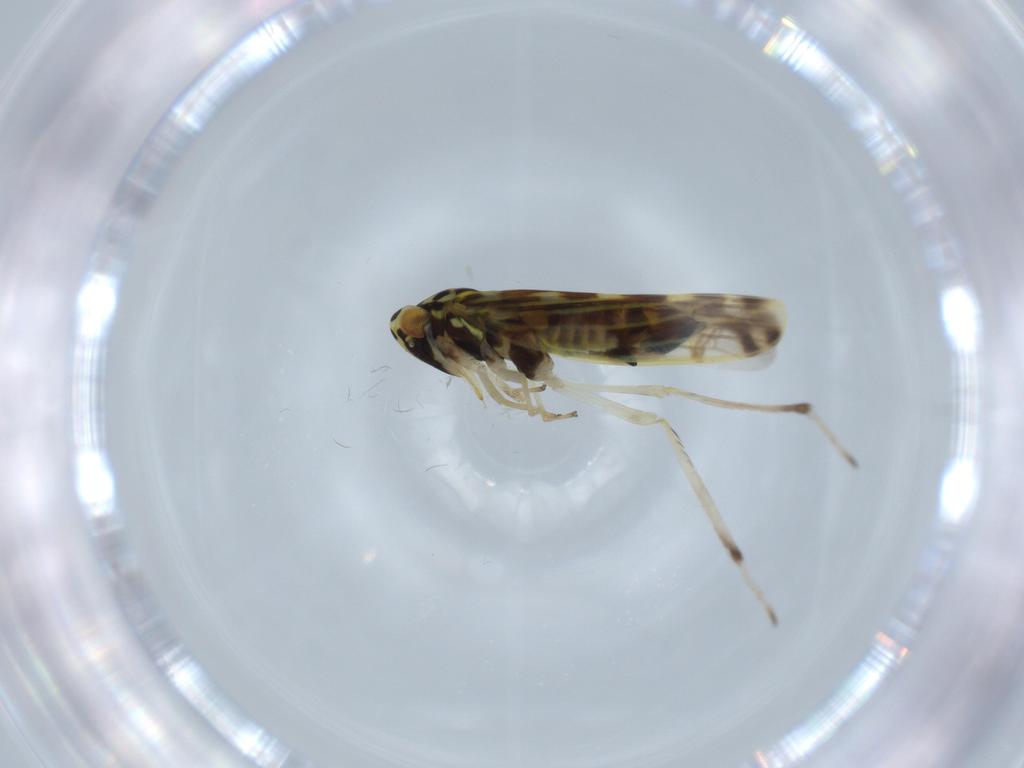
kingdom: Animalia
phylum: Arthropoda
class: Insecta
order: Hemiptera
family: Cicadellidae
